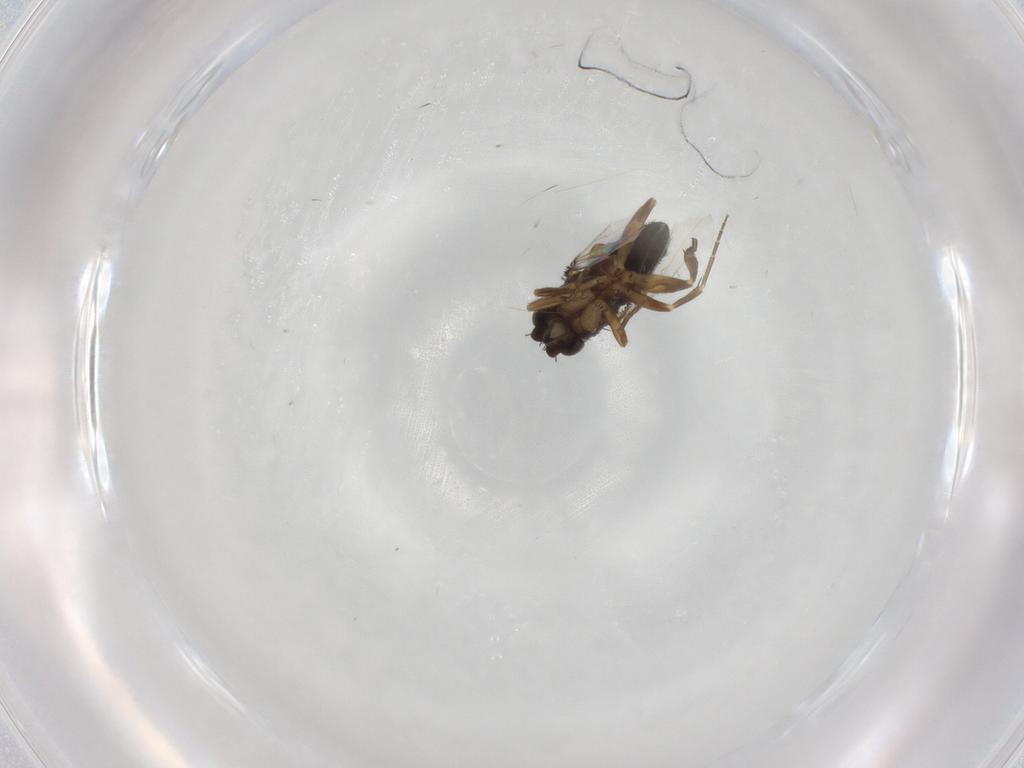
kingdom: Animalia
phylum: Arthropoda
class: Insecta
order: Diptera
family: Phoridae
